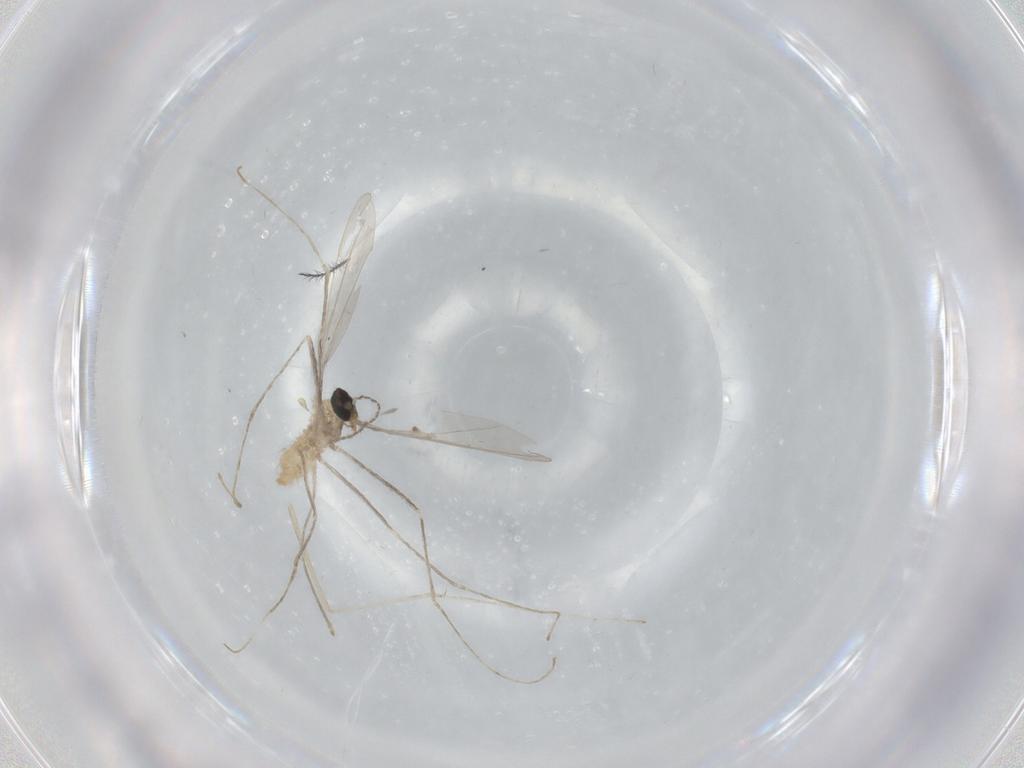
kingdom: Animalia
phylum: Arthropoda
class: Insecta
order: Diptera
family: Cecidomyiidae
